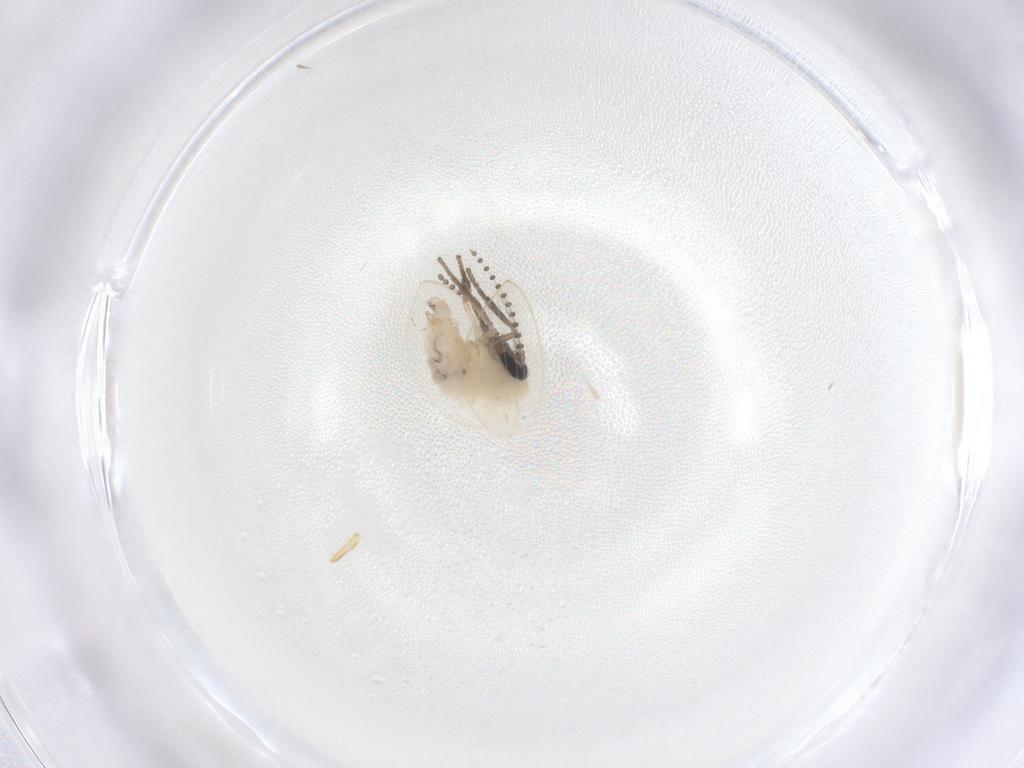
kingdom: Animalia
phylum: Arthropoda
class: Insecta
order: Diptera
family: Psychodidae
